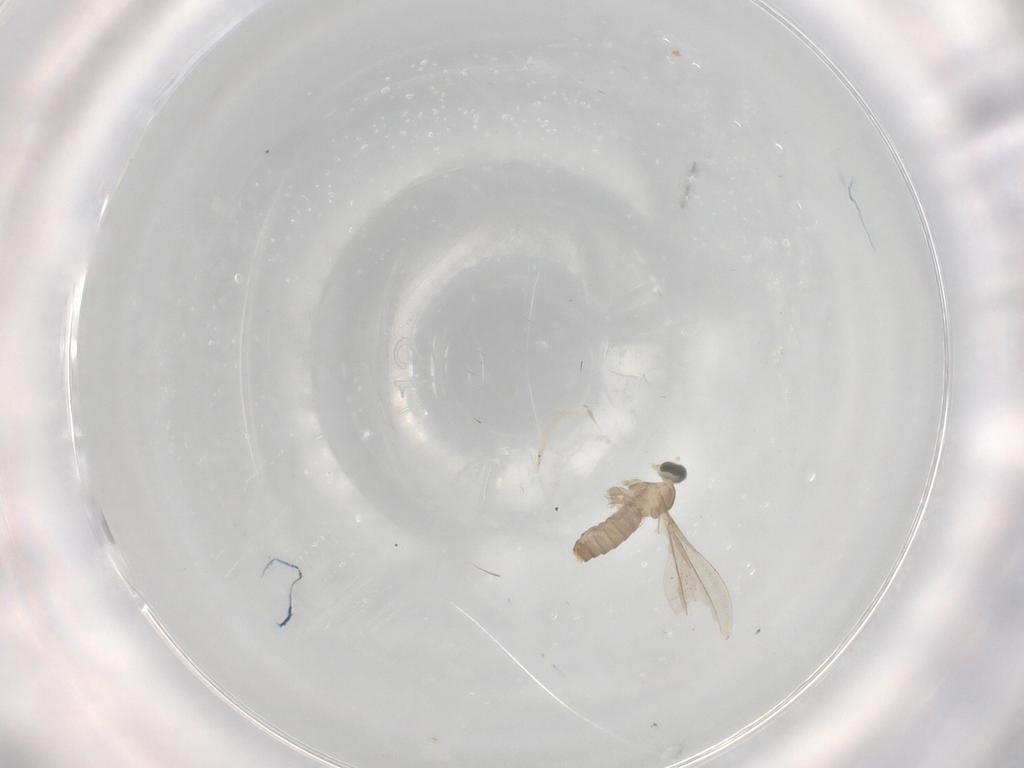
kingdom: Animalia
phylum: Arthropoda
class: Insecta
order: Diptera
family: Cecidomyiidae
